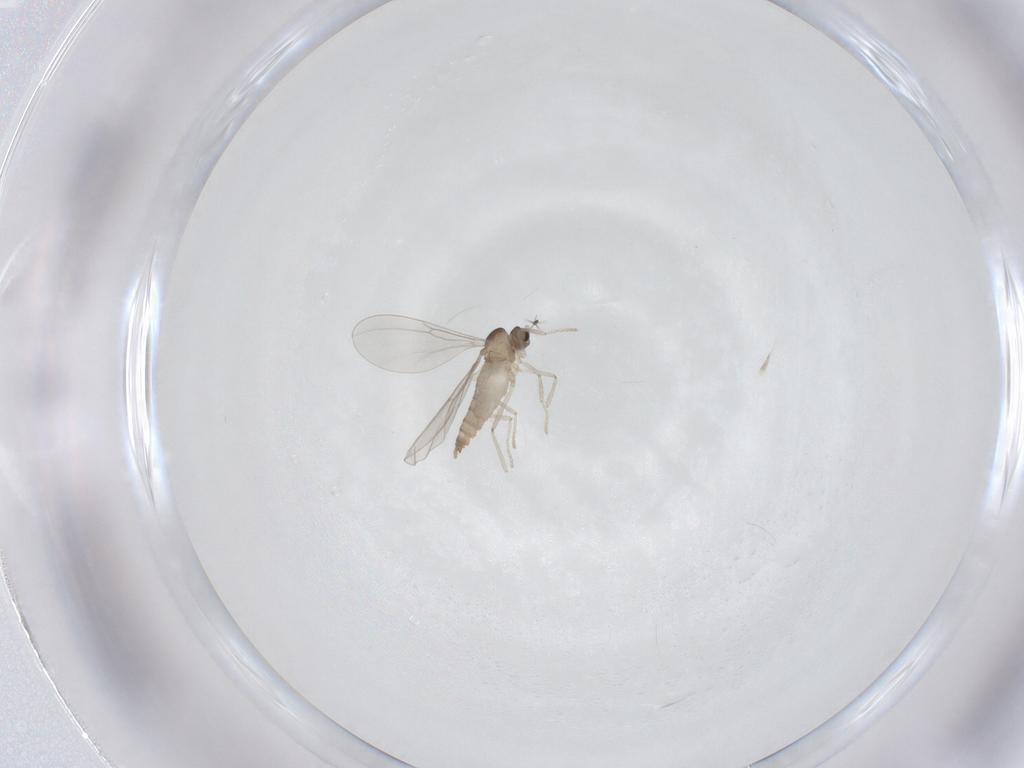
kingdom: Animalia
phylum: Arthropoda
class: Insecta
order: Diptera
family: Cecidomyiidae
